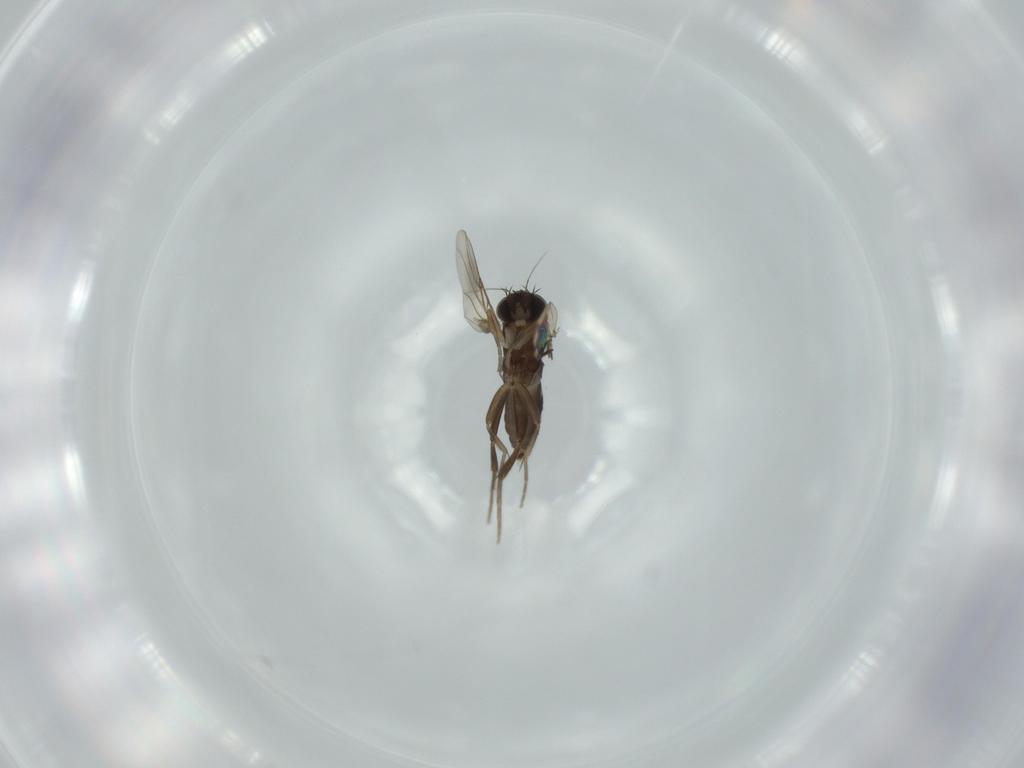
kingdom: Animalia
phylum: Arthropoda
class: Insecta
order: Diptera
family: Phoridae
